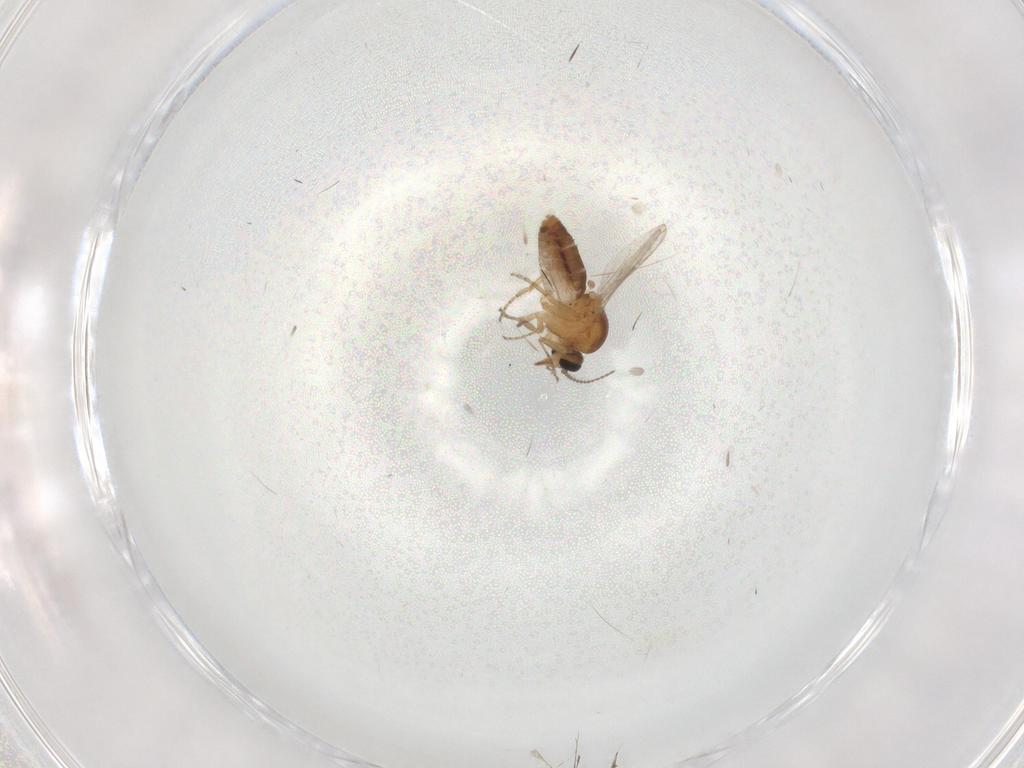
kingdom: Animalia
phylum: Arthropoda
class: Insecta
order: Diptera
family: Ceratopogonidae
